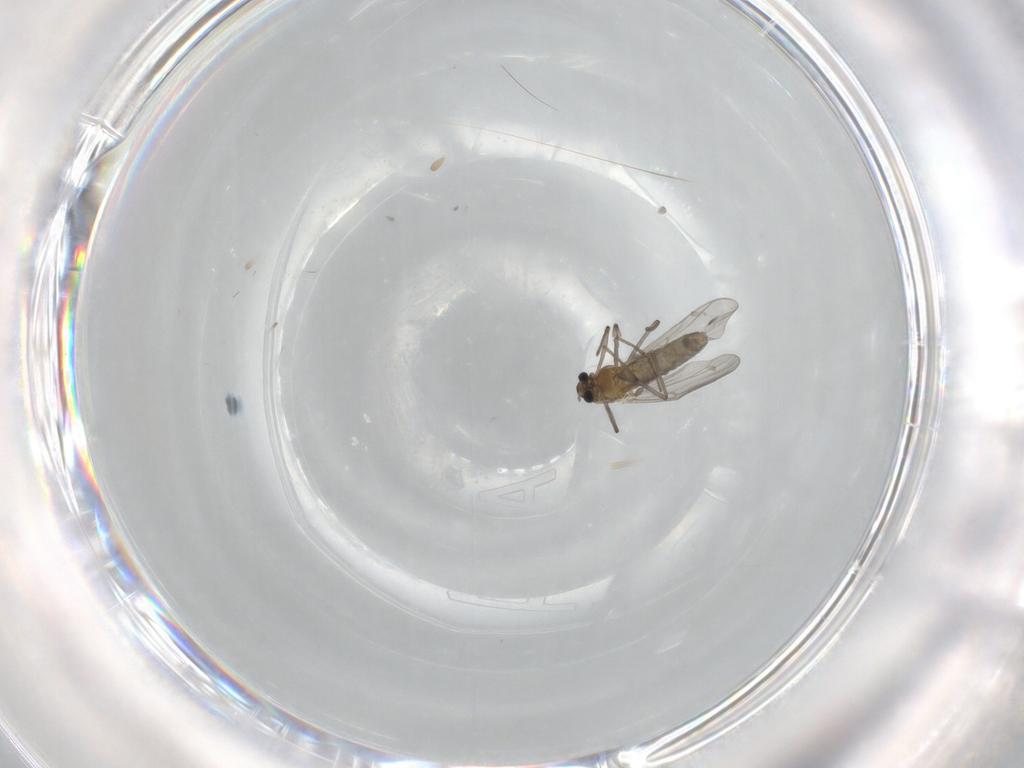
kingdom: Animalia
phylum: Arthropoda
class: Insecta
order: Diptera
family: Chironomidae
